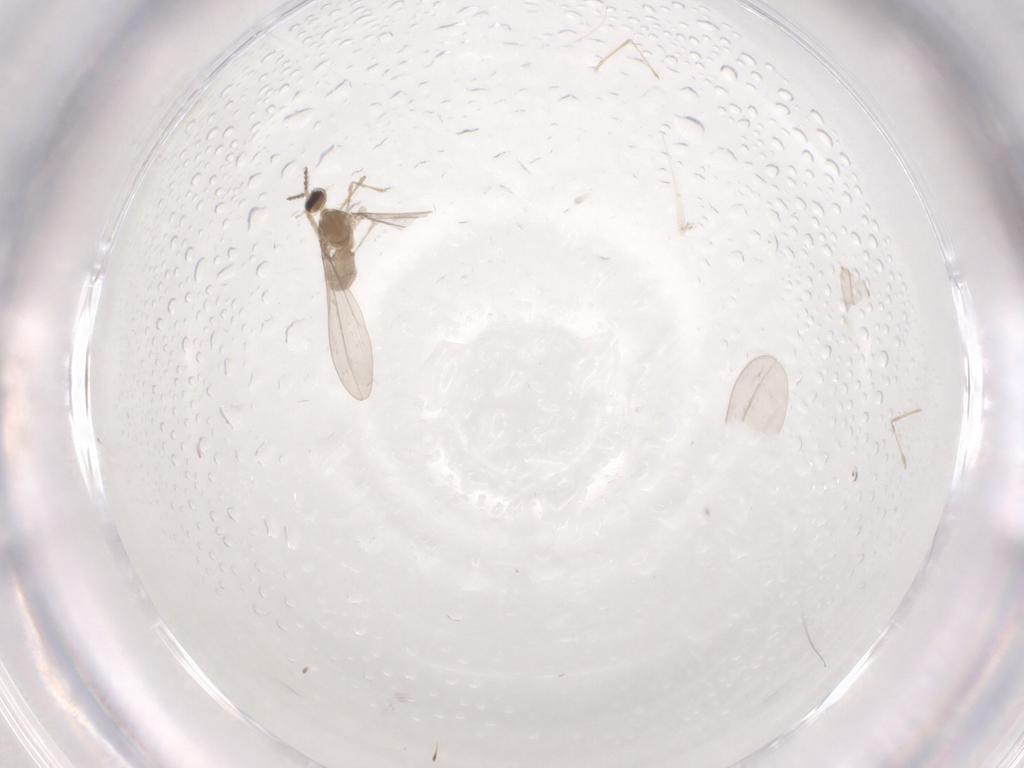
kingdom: Animalia
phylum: Arthropoda
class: Insecta
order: Diptera
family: Cecidomyiidae
